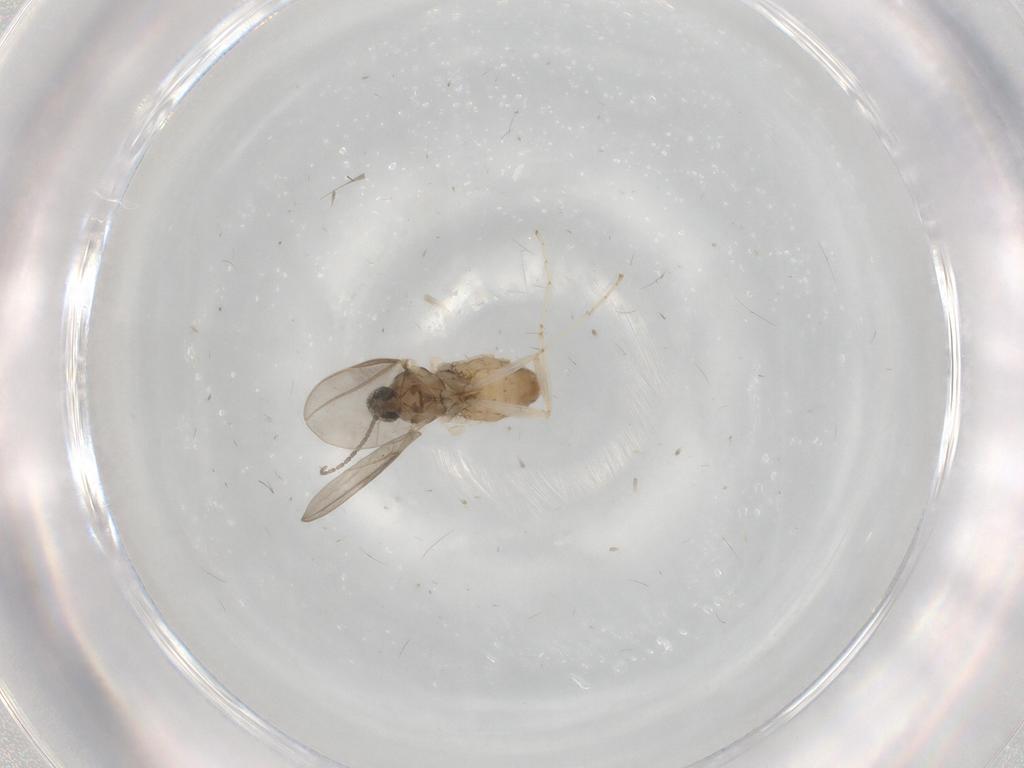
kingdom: Animalia
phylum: Arthropoda
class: Insecta
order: Diptera
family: Cecidomyiidae
